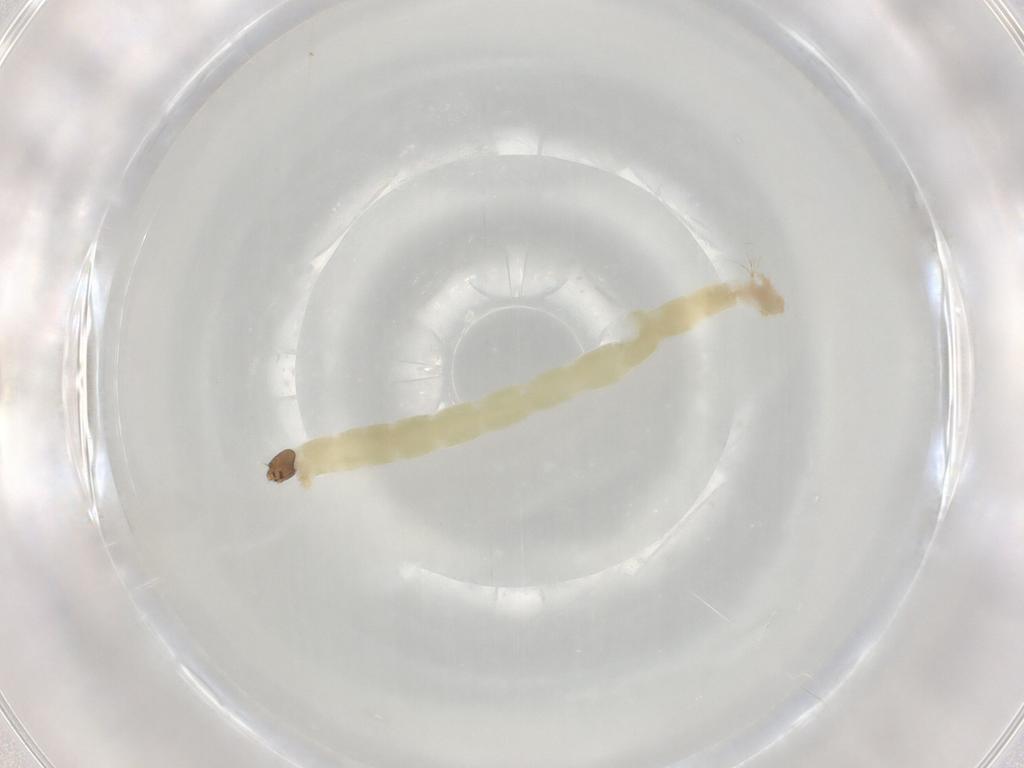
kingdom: Animalia
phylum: Arthropoda
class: Insecta
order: Diptera
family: Chironomidae
